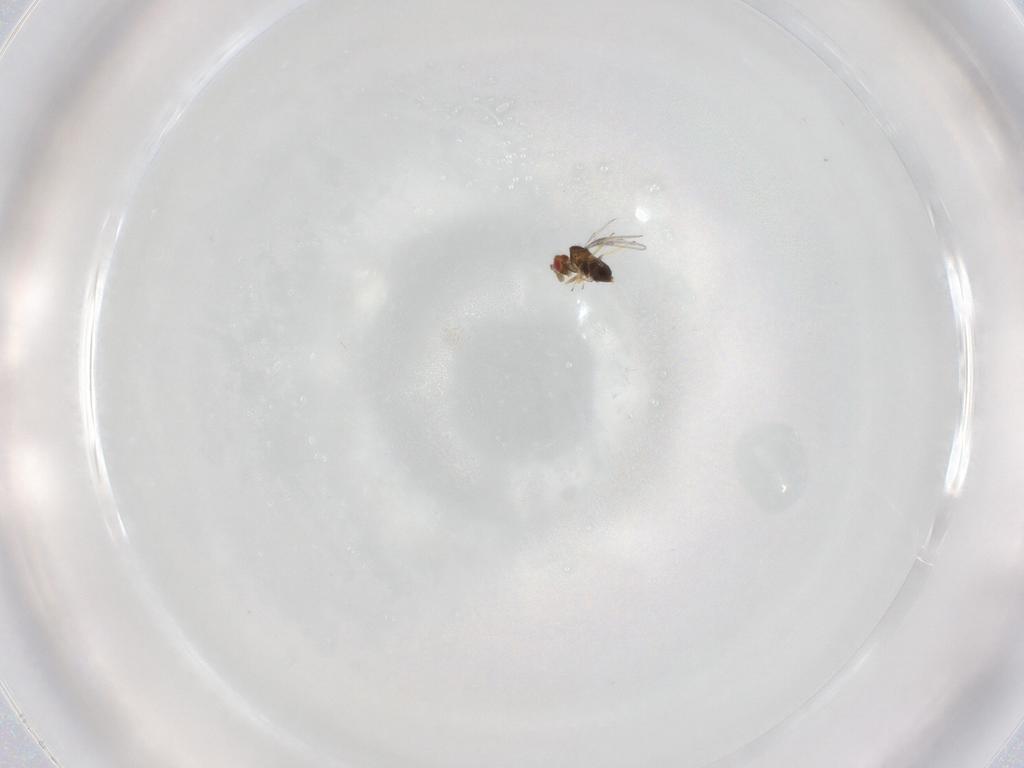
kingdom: Animalia
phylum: Arthropoda
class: Insecta
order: Hymenoptera
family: Trichogrammatidae
